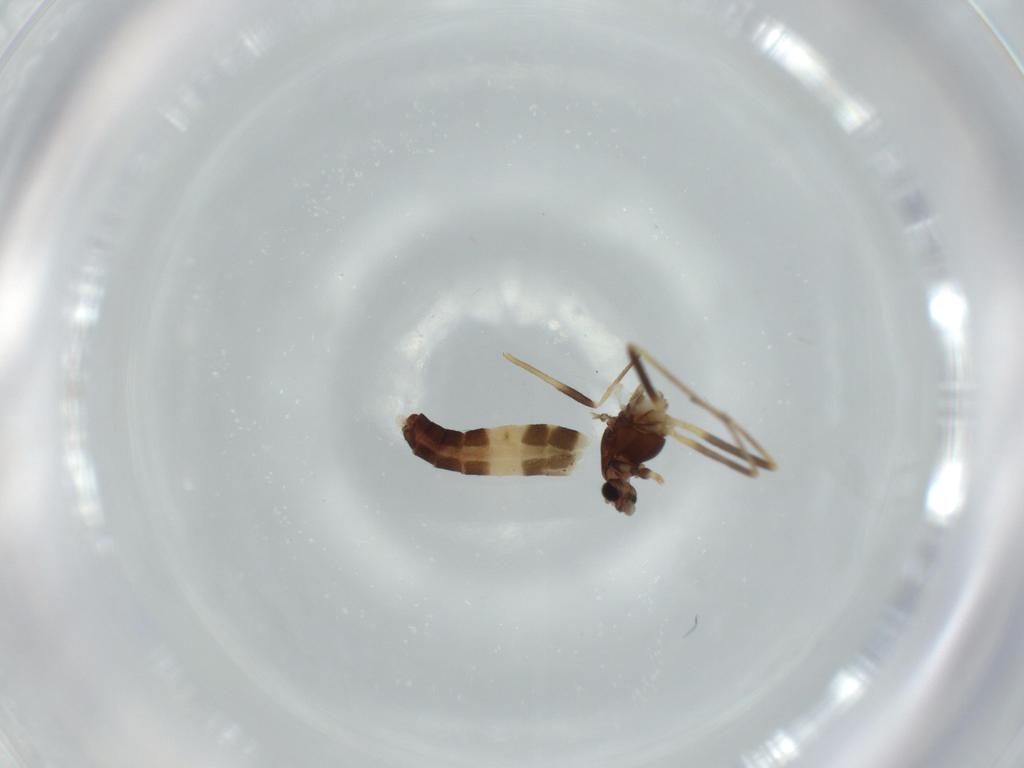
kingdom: Animalia
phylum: Arthropoda
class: Insecta
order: Diptera
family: Chironomidae
